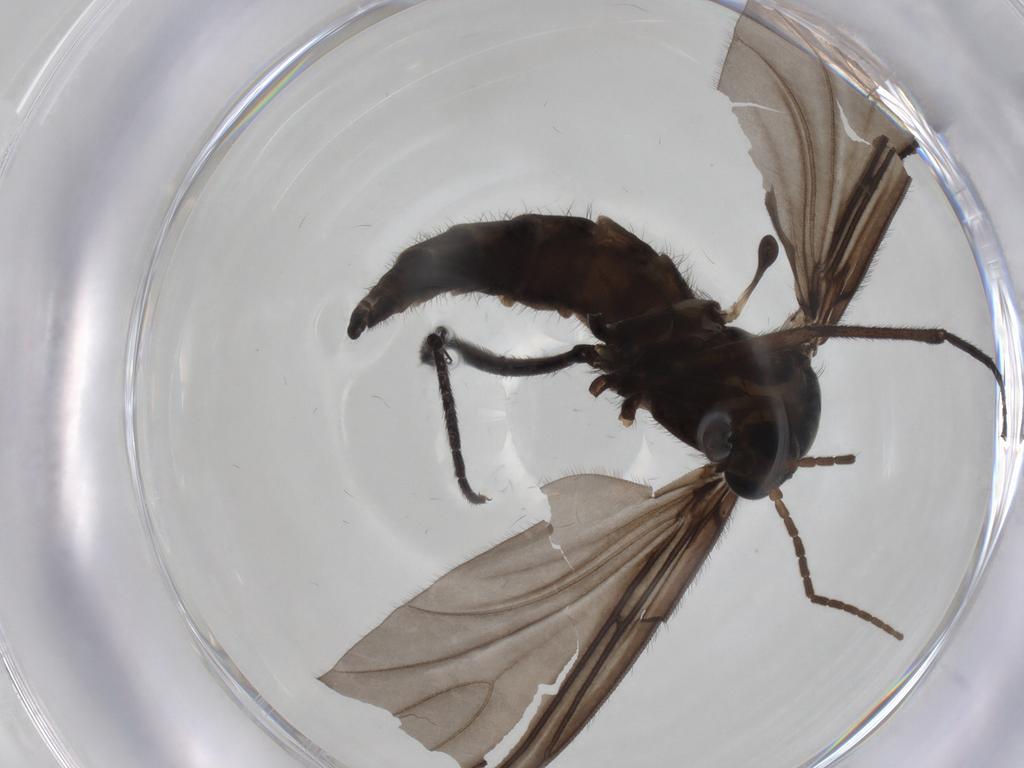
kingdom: Animalia
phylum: Arthropoda
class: Insecta
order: Diptera
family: Sciaridae
